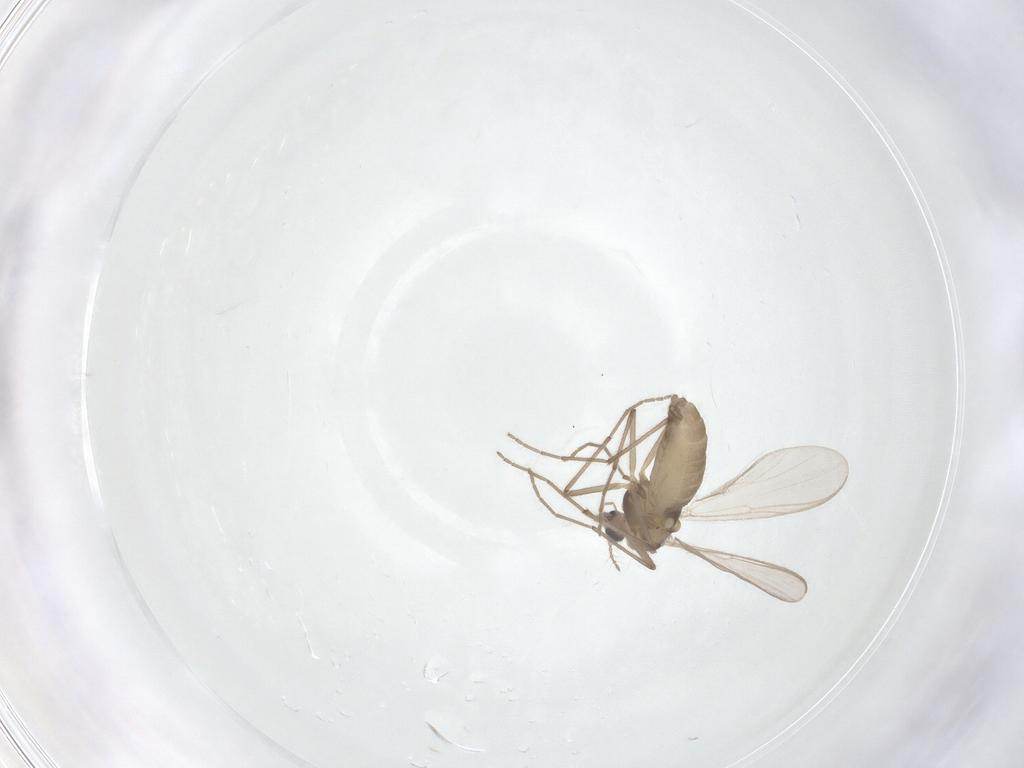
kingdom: Animalia
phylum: Arthropoda
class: Insecta
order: Diptera
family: Chironomidae
